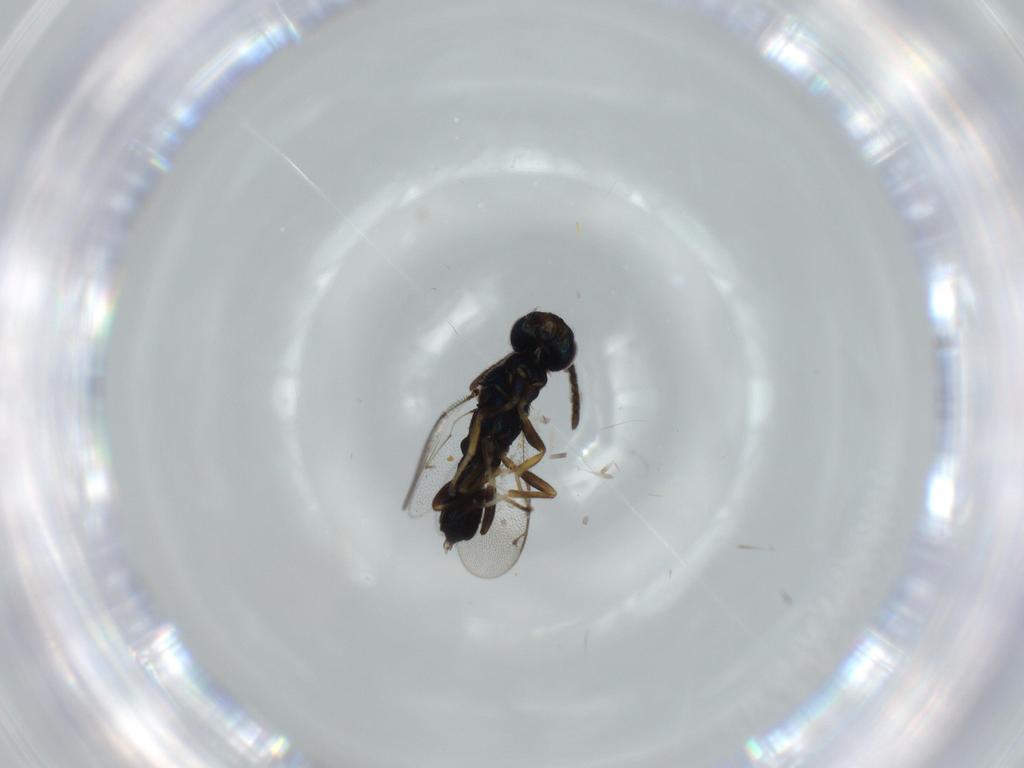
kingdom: Animalia
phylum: Arthropoda
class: Insecta
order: Hymenoptera
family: Eupelmidae
